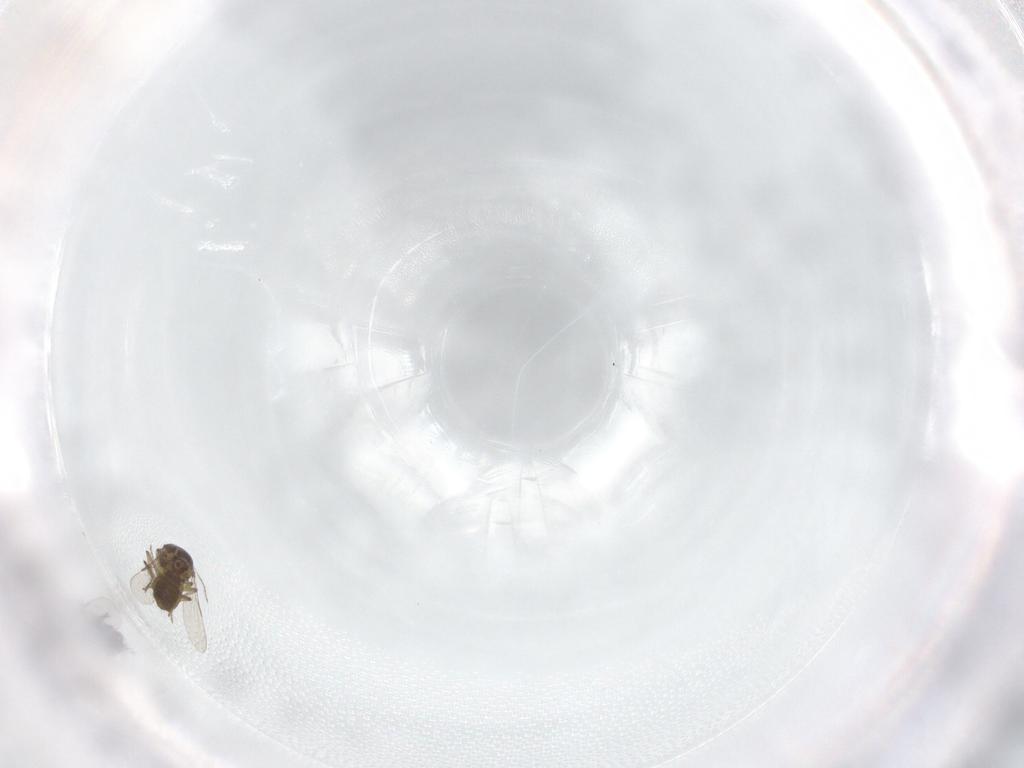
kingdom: Animalia
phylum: Arthropoda
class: Insecta
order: Diptera
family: Ceratopogonidae
